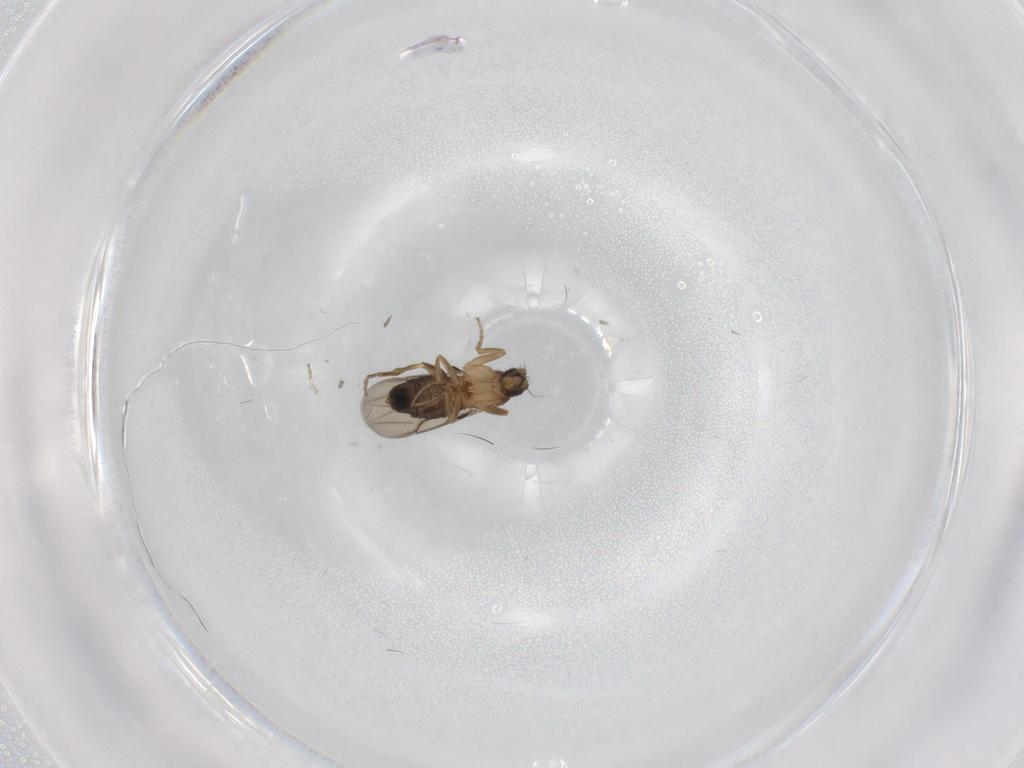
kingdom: Animalia
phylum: Arthropoda
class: Insecta
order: Diptera
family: Phoridae
